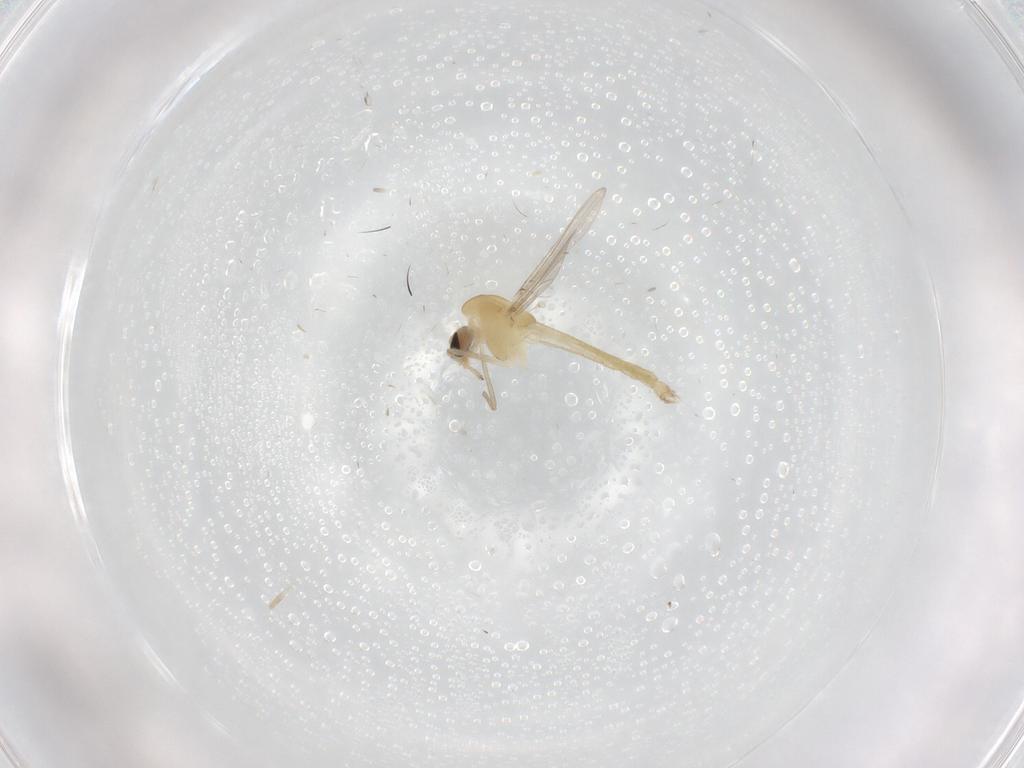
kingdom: Animalia
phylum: Arthropoda
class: Insecta
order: Diptera
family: Chironomidae
